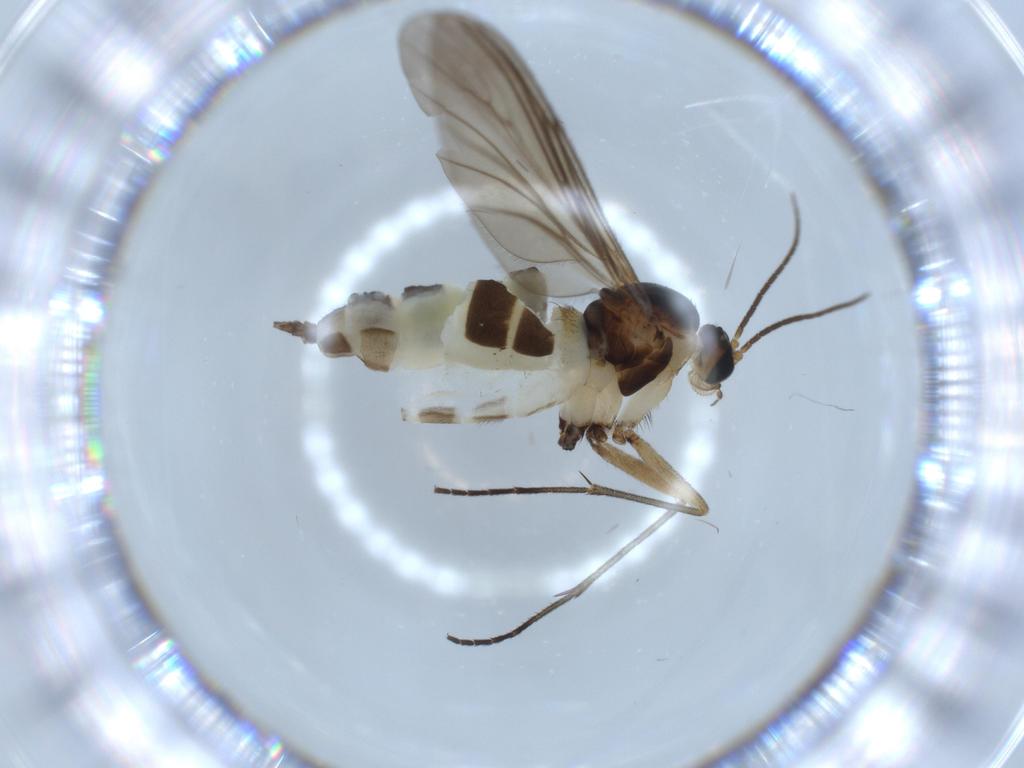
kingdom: Animalia
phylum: Arthropoda
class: Insecta
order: Diptera
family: Sciaridae
